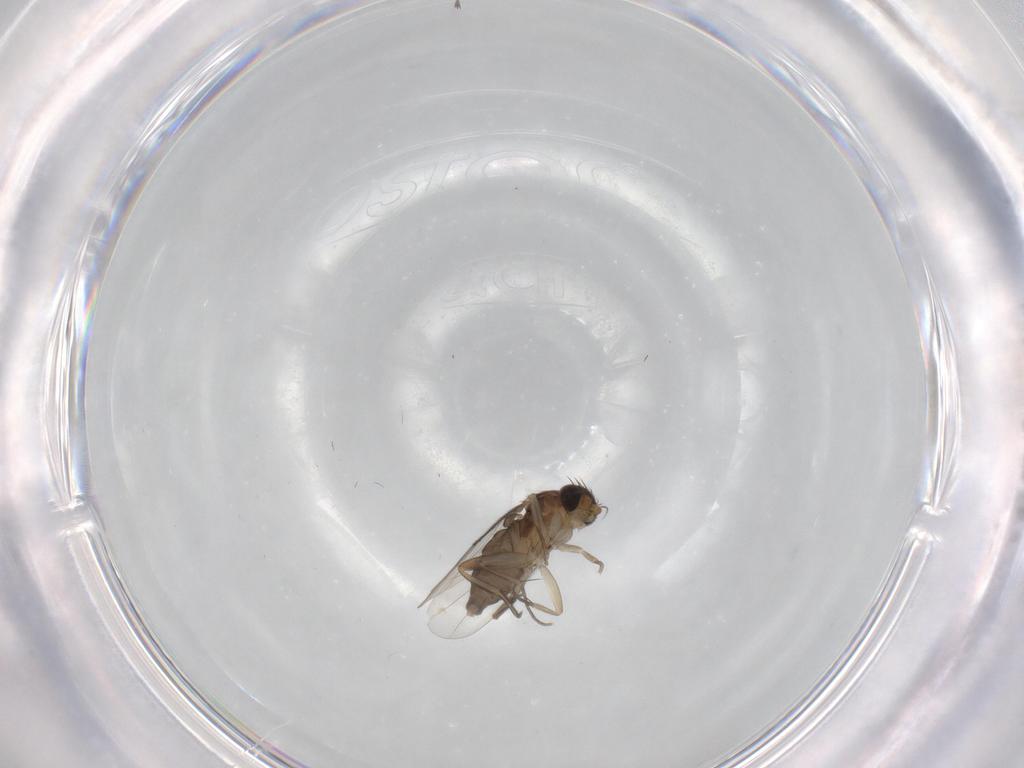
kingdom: Animalia
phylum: Arthropoda
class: Insecta
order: Diptera
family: Phoridae
